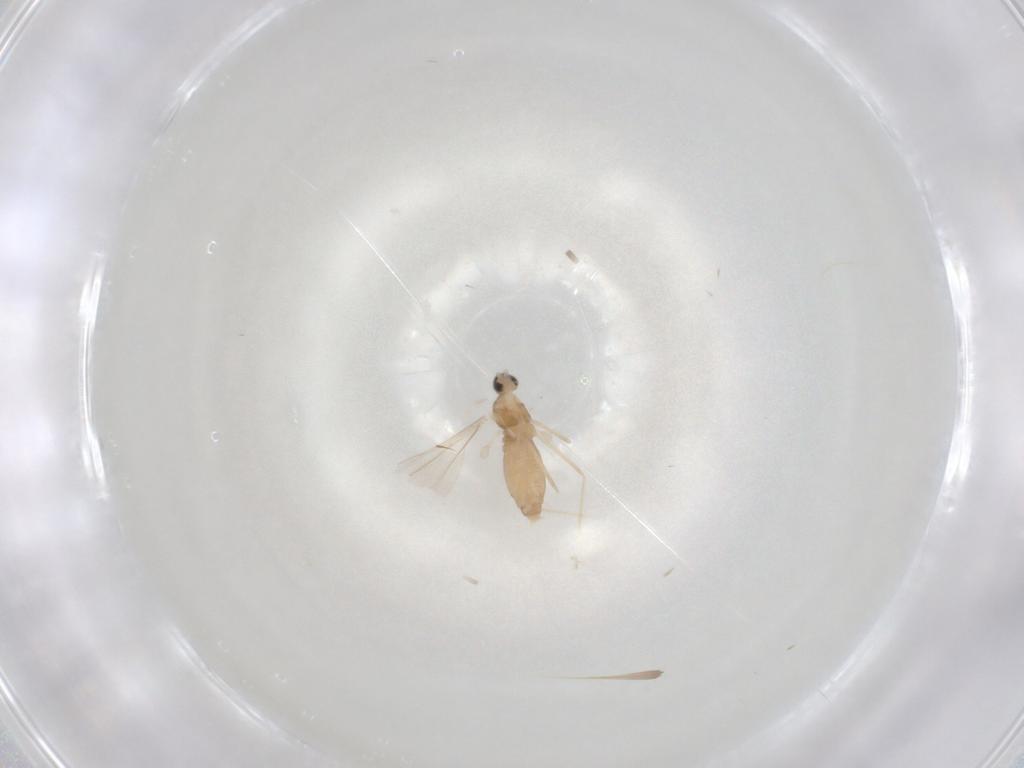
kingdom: Animalia
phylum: Arthropoda
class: Insecta
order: Diptera
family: Cecidomyiidae
